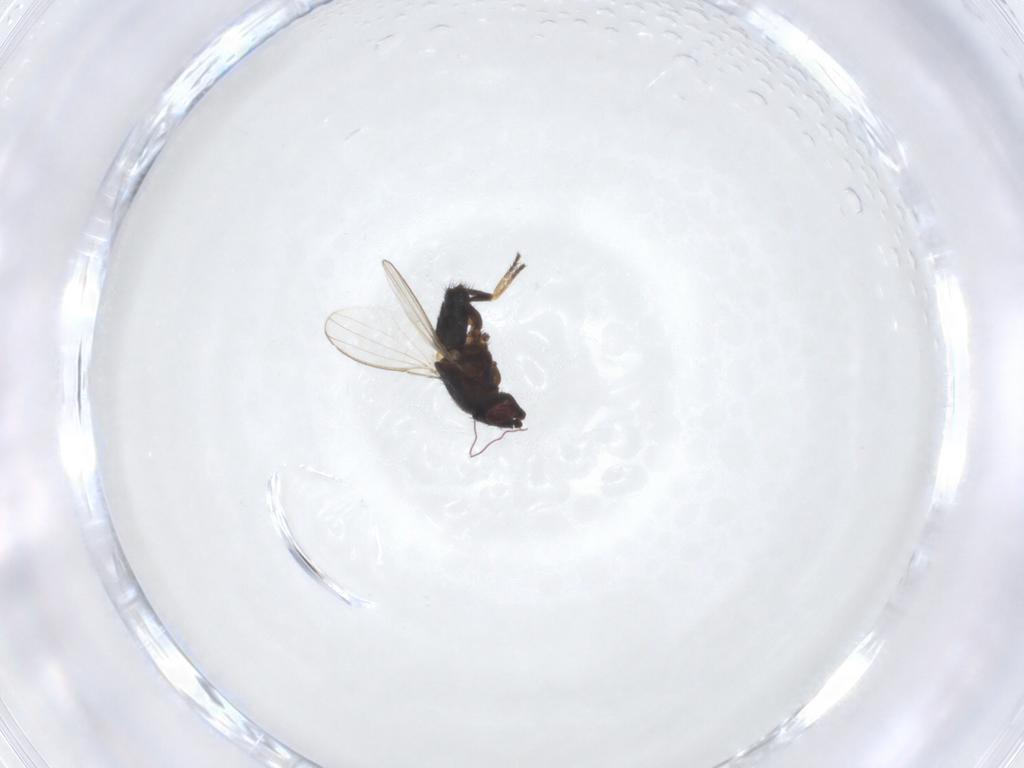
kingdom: Animalia
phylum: Arthropoda
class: Insecta
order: Diptera
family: Milichiidae
